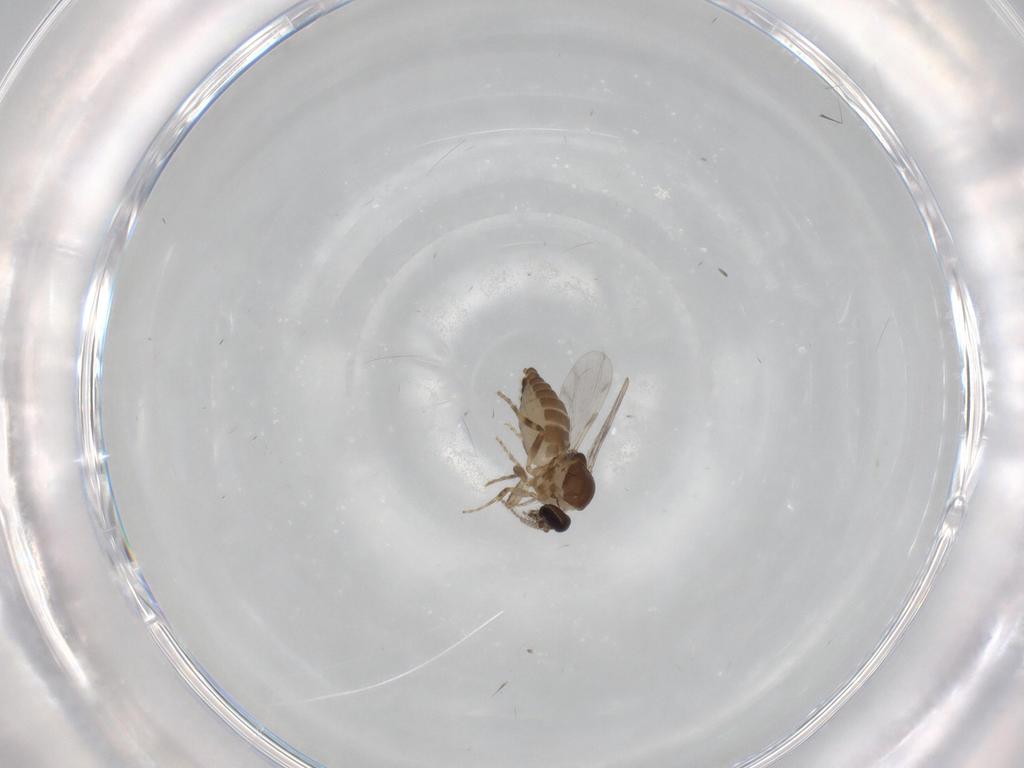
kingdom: Animalia
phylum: Arthropoda
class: Insecta
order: Diptera
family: Ceratopogonidae
